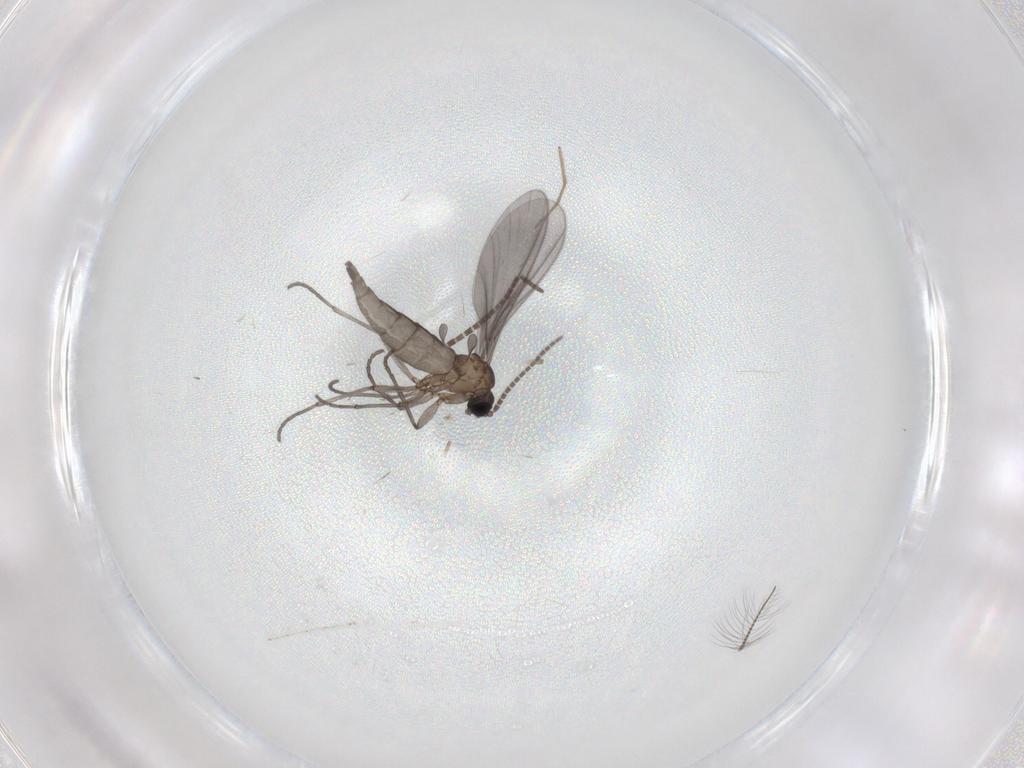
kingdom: Animalia
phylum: Arthropoda
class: Insecta
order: Diptera
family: Sciaridae
